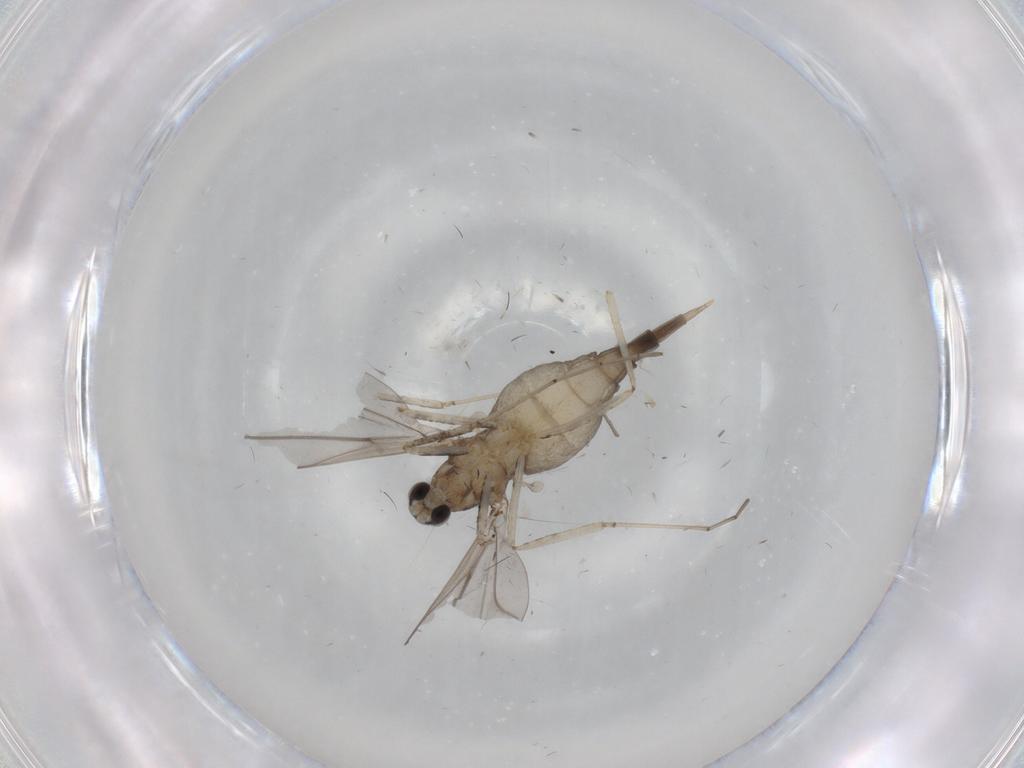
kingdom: Animalia
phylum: Arthropoda
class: Insecta
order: Diptera
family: Cecidomyiidae
